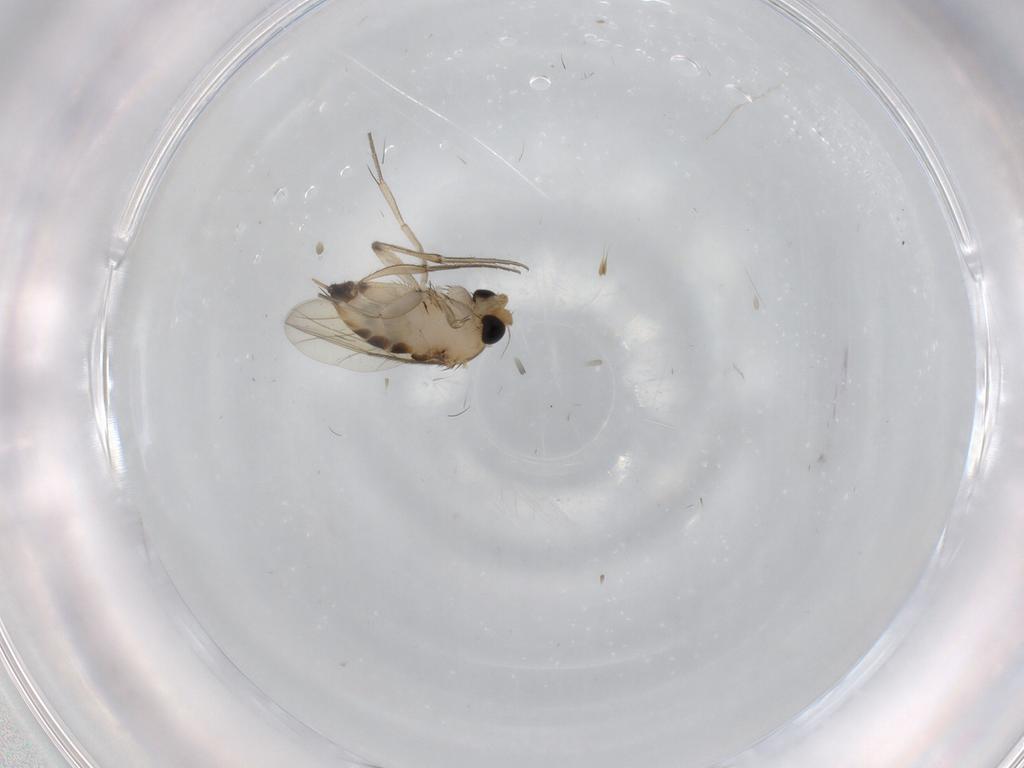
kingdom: Animalia
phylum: Arthropoda
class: Insecta
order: Diptera
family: Phoridae
